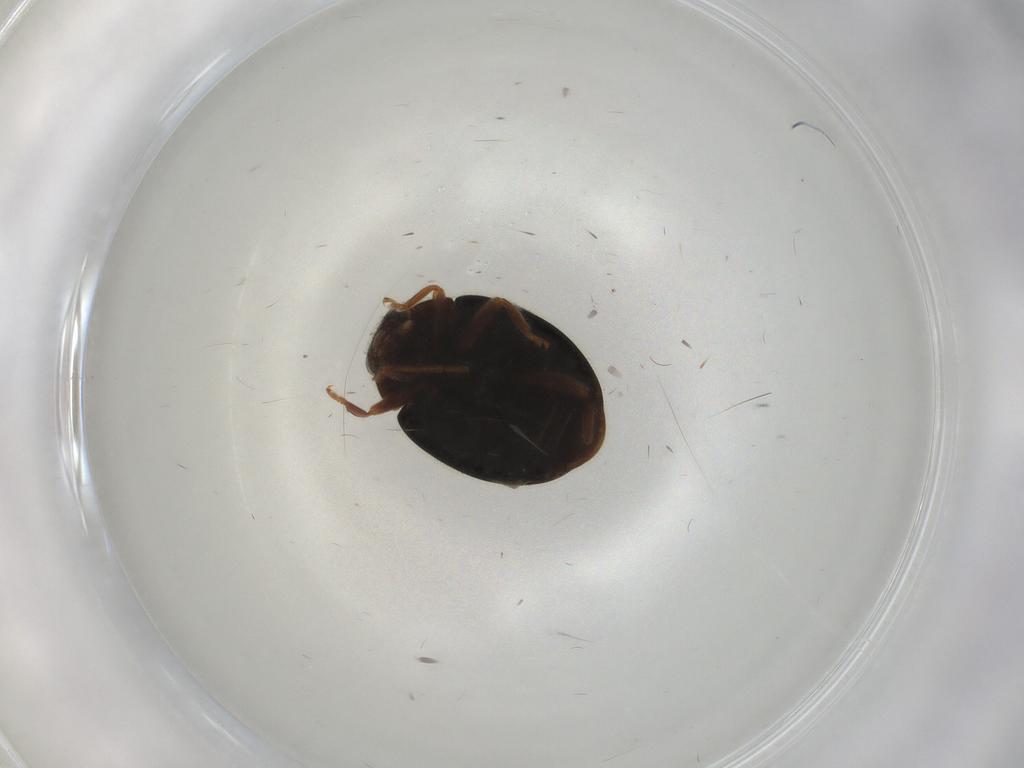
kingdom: Animalia
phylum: Arthropoda
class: Insecta
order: Coleoptera
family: Coccinellidae
